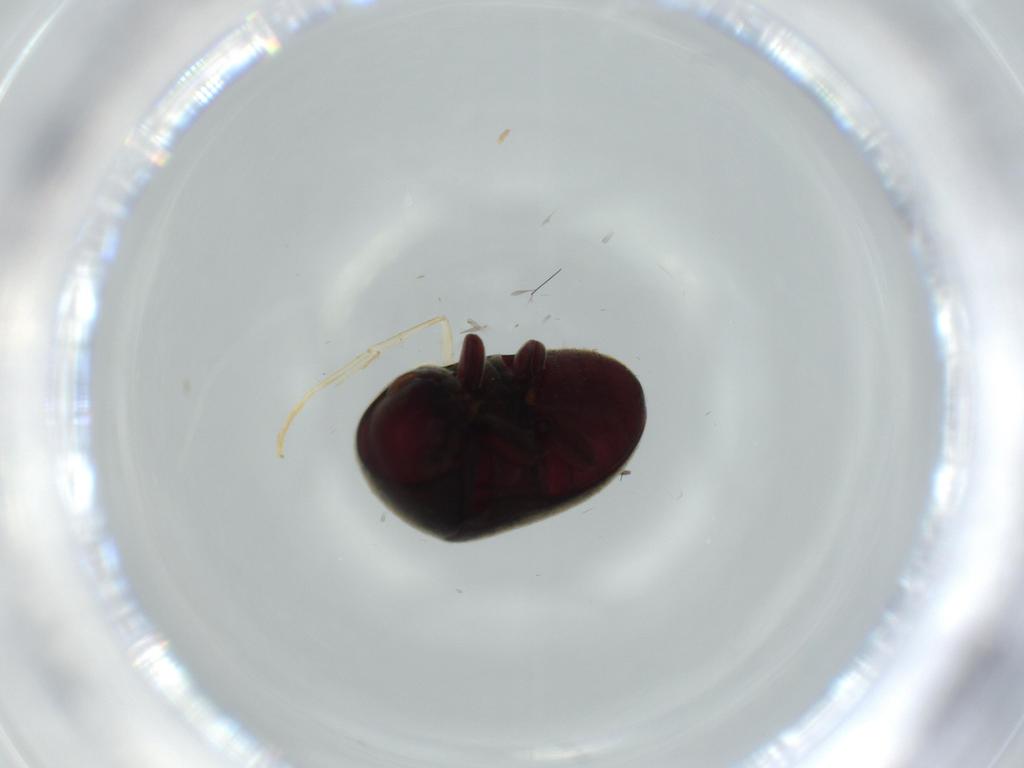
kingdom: Animalia
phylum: Arthropoda
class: Insecta
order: Coleoptera
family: Ptinidae
